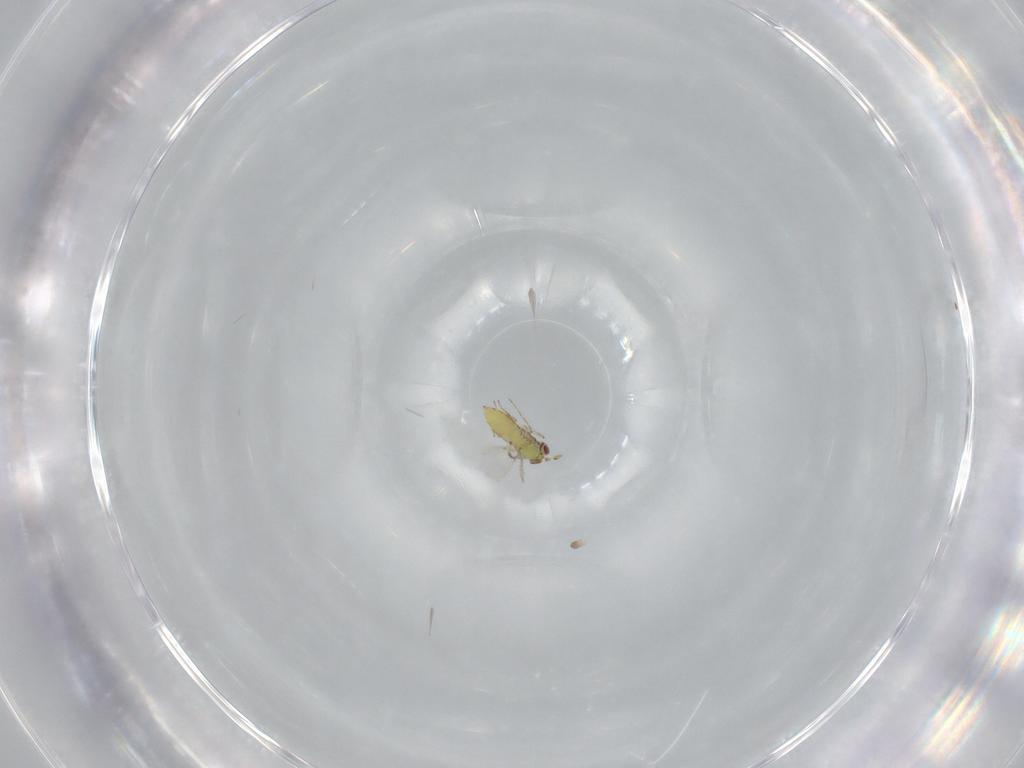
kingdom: Animalia
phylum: Arthropoda
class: Insecta
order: Hymenoptera
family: Trichogrammatidae
